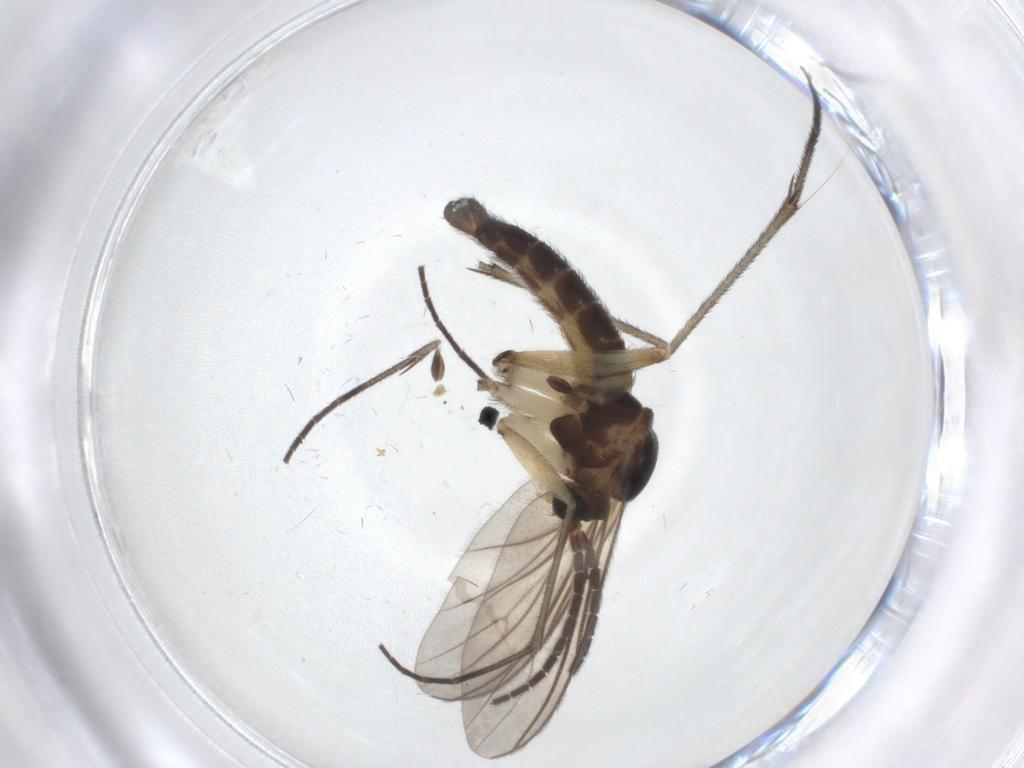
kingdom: Animalia
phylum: Arthropoda
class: Insecta
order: Diptera
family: Sciaridae
